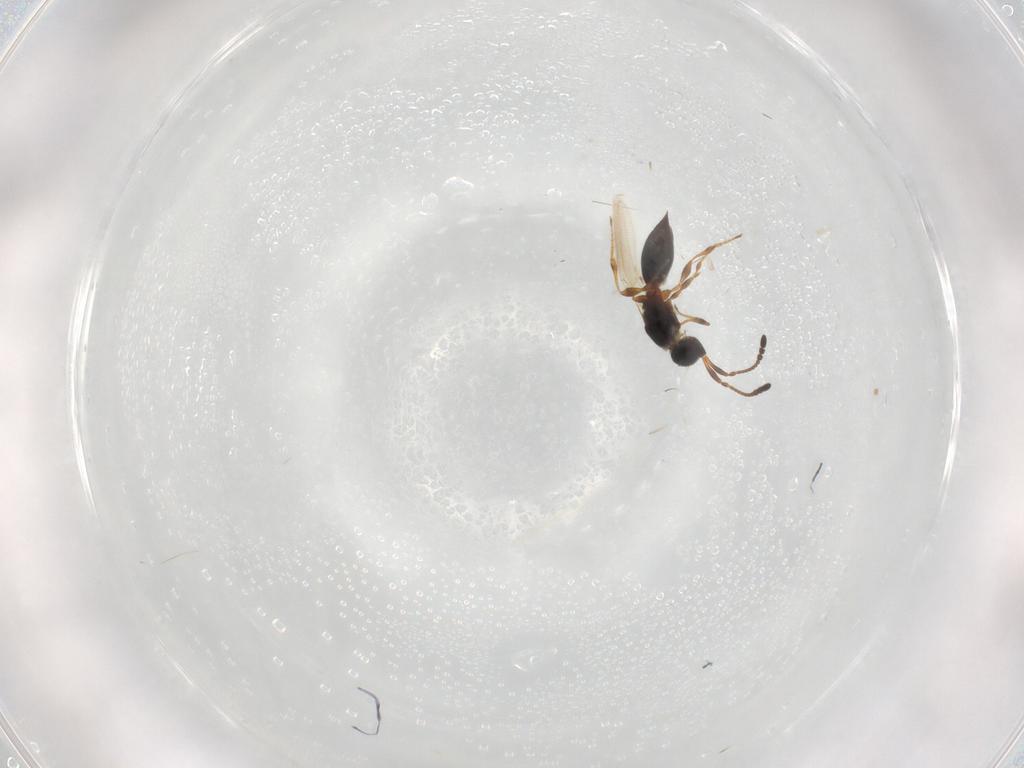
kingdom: Animalia
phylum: Arthropoda
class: Insecta
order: Hymenoptera
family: Diapriidae
